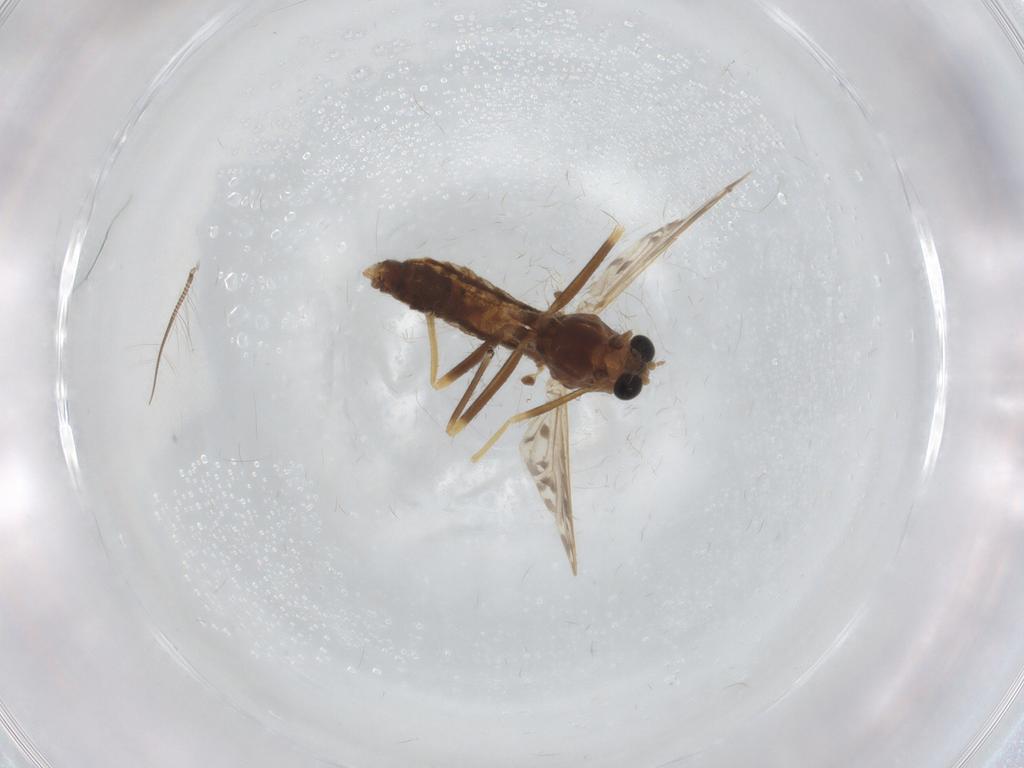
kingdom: Animalia
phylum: Arthropoda
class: Insecta
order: Diptera
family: Chironomidae
